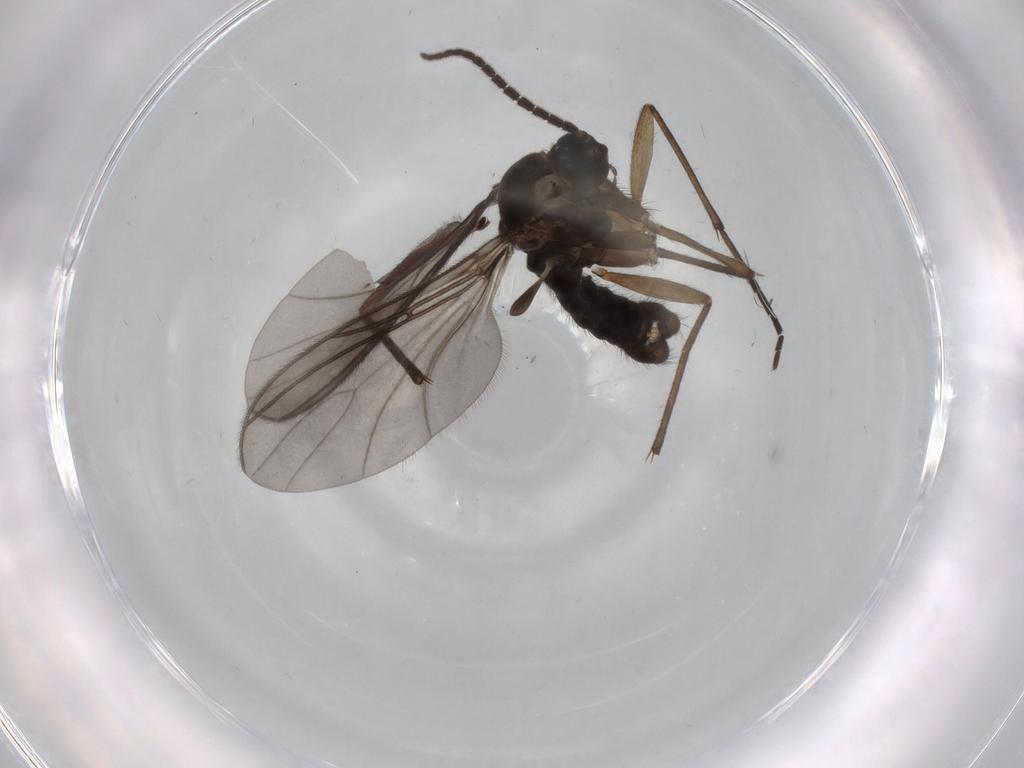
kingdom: Animalia
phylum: Arthropoda
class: Insecta
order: Diptera
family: Sciaridae
